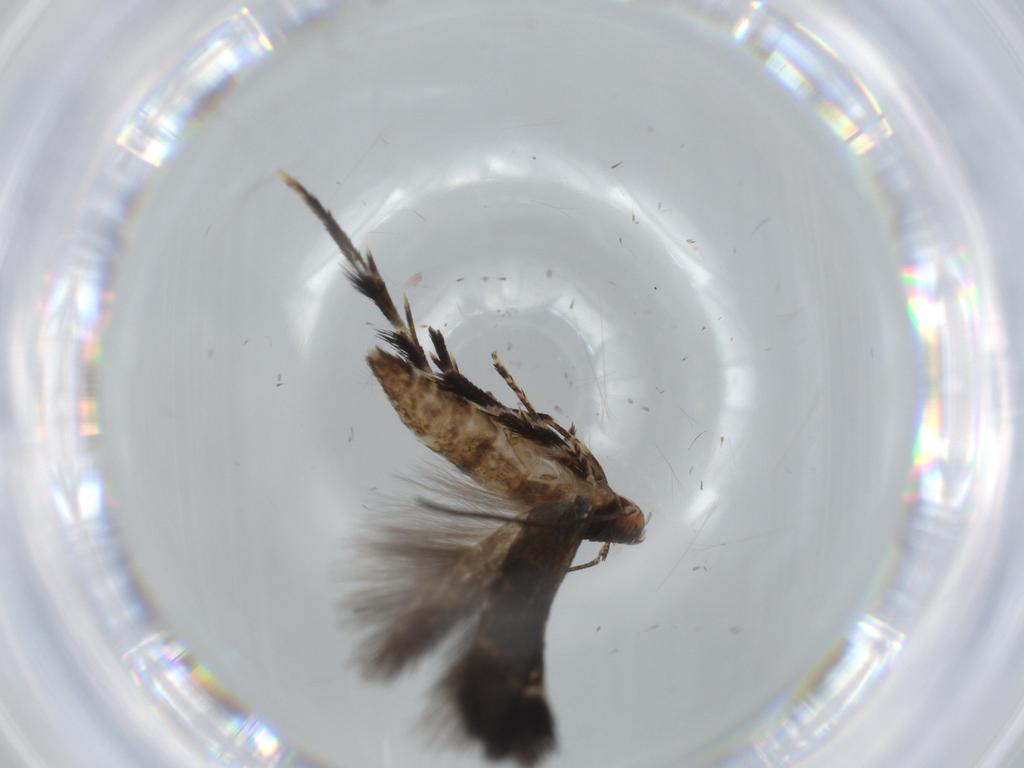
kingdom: Animalia
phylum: Arthropoda
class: Insecta
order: Lepidoptera
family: Momphidae
